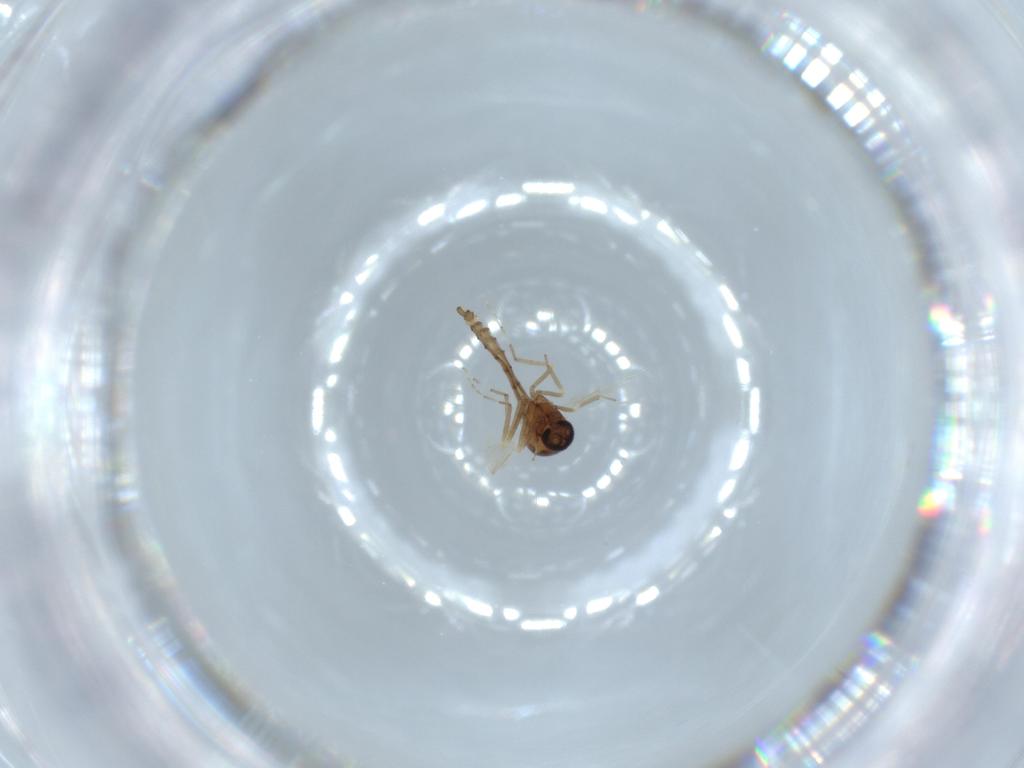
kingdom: Animalia
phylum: Arthropoda
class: Insecta
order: Diptera
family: Ceratopogonidae
